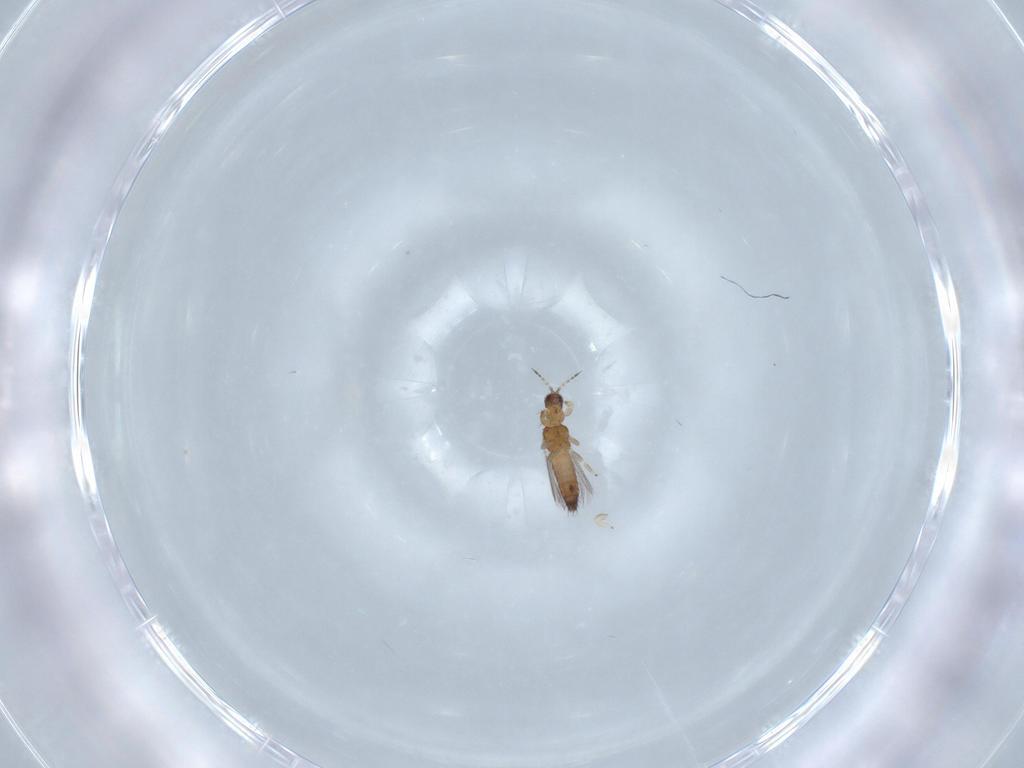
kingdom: Animalia
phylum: Arthropoda
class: Insecta
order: Thysanoptera
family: Thripidae
